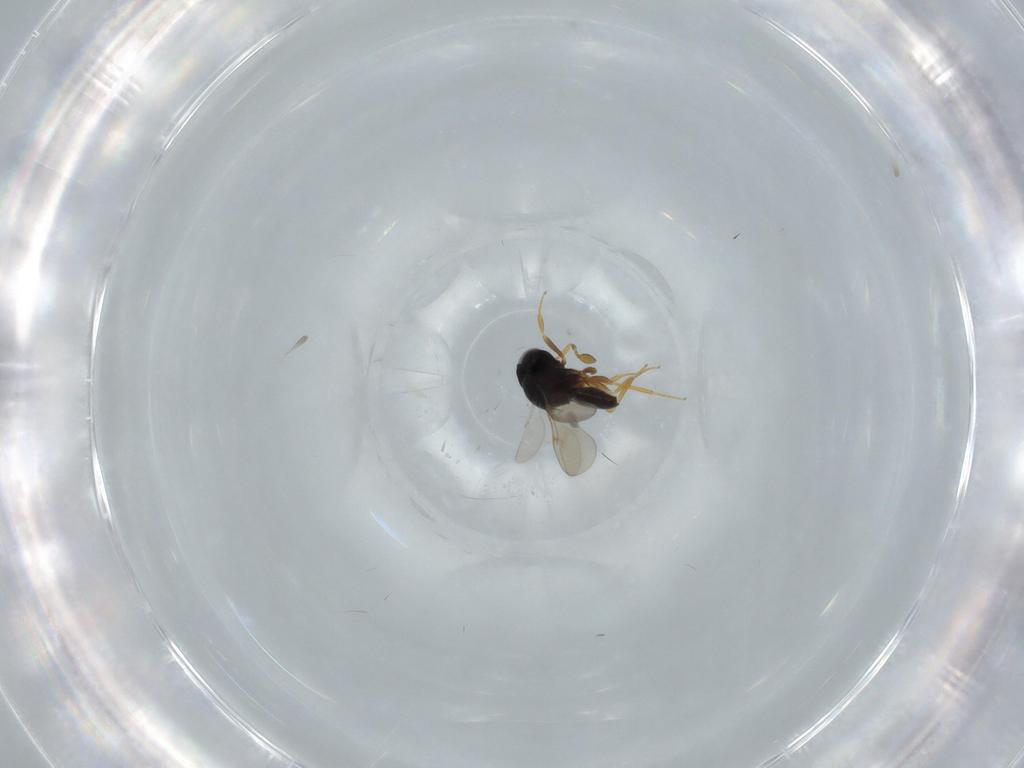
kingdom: Animalia
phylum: Arthropoda
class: Insecta
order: Hymenoptera
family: Scelionidae
